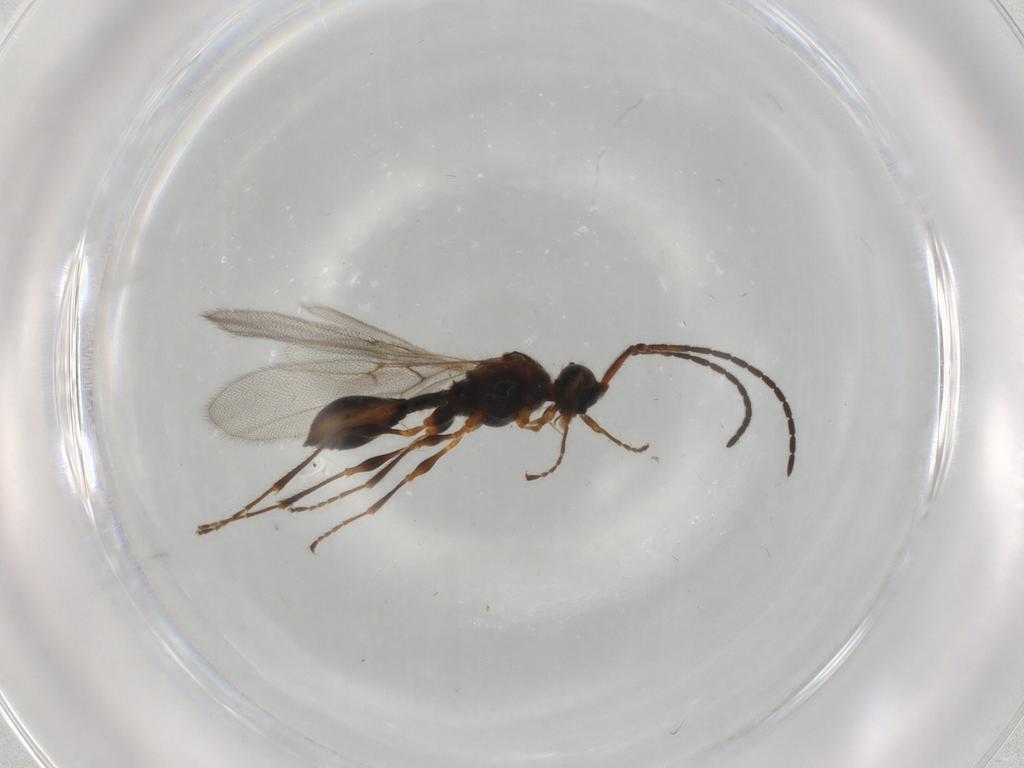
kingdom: Animalia
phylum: Arthropoda
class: Insecta
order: Hymenoptera
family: Diapriidae
